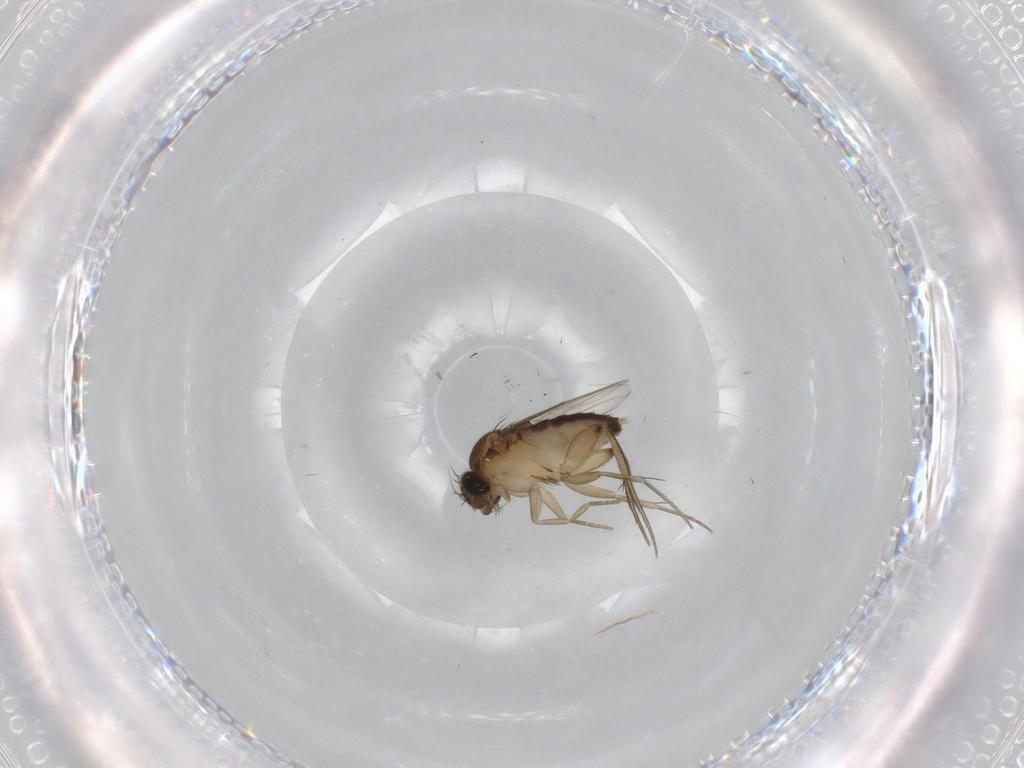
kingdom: Animalia
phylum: Arthropoda
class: Insecta
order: Diptera
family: Phoridae
